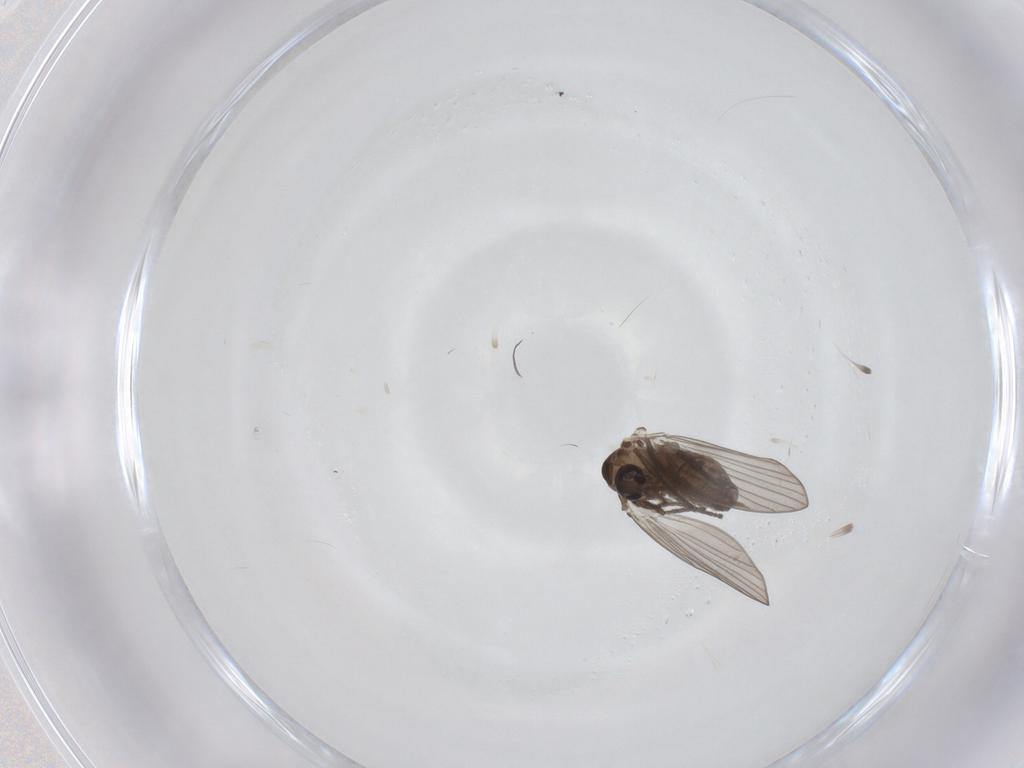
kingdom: Animalia
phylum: Arthropoda
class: Insecta
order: Diptera
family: Psychodidae
